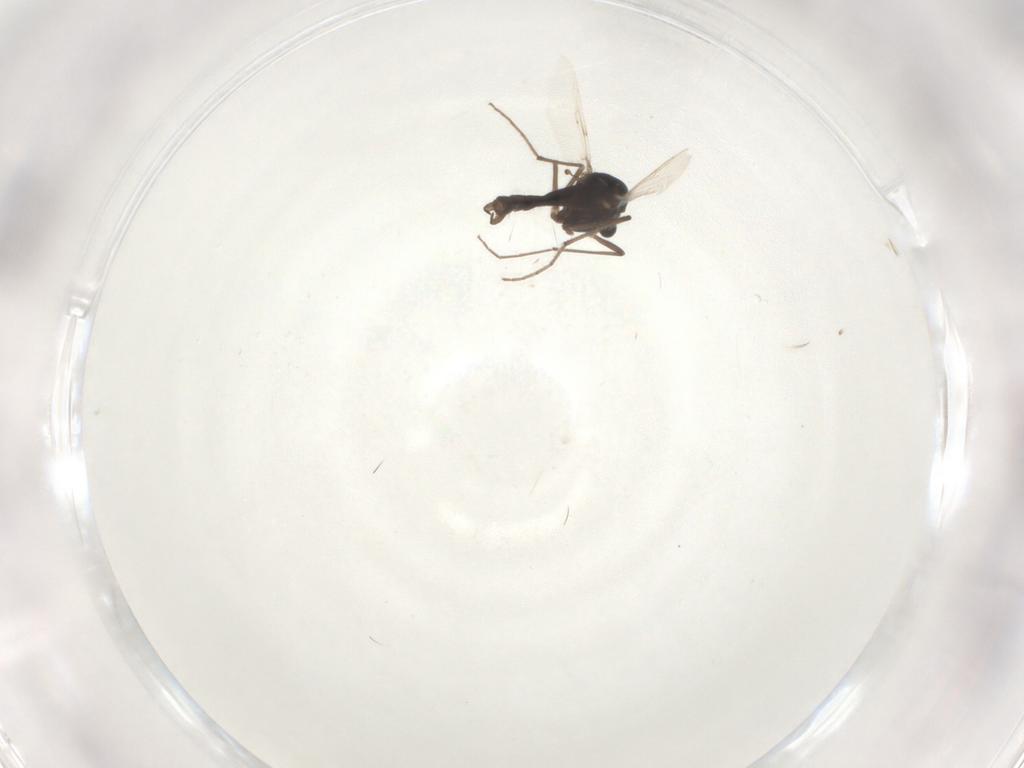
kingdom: Animalia
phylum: Arthropoda
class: Insecta
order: Diptera
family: Chironomidae
